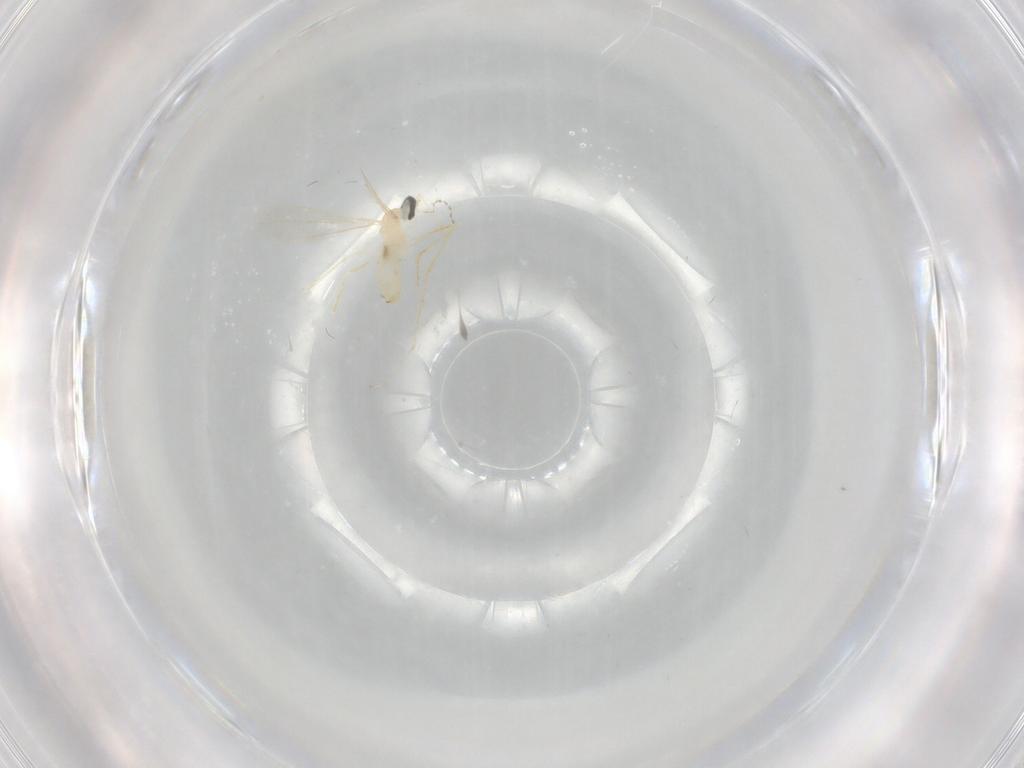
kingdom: Animalia
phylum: Arthropoda
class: Insecta
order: Diptera
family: Cecidomyiidae
